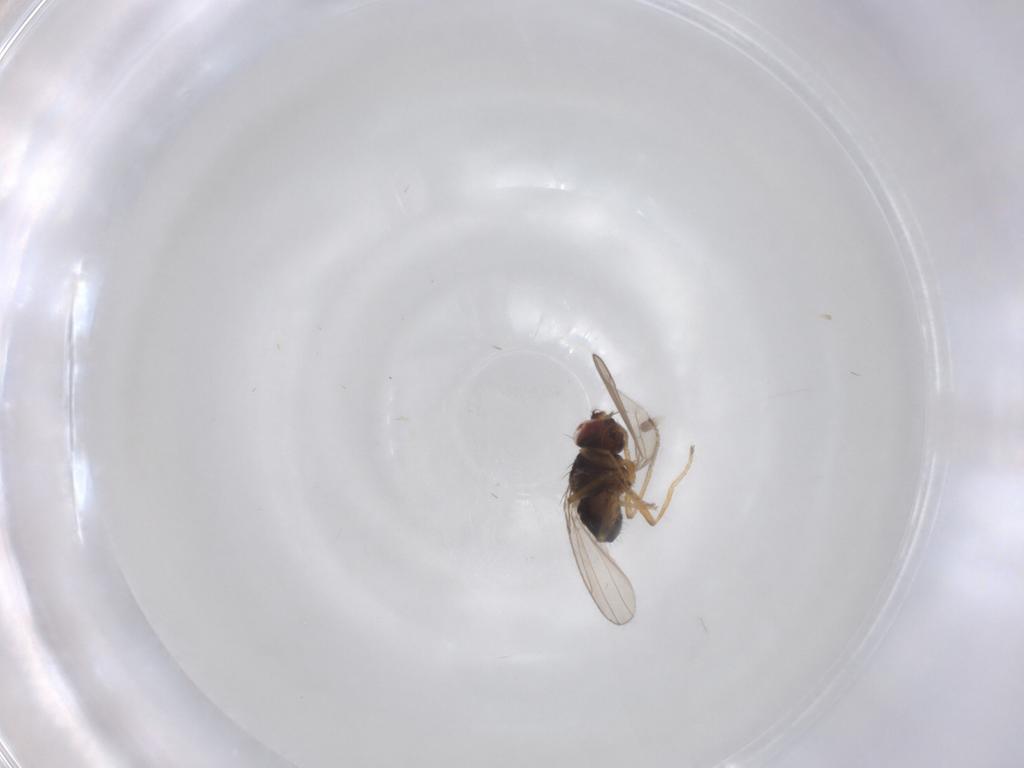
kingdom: Animalia
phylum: Arthropoda
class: Insecta
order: Diptera
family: Ephydridae
